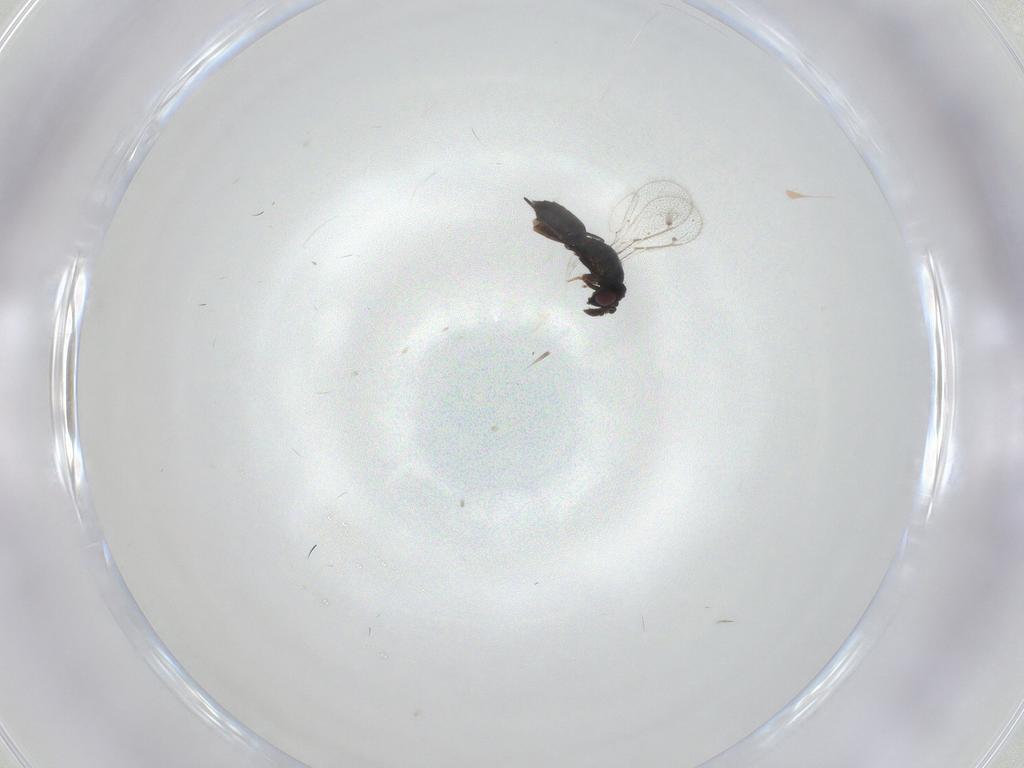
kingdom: Animalia
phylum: Arthropoda
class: Insecta
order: Hymenoptera
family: Pteromalidae
